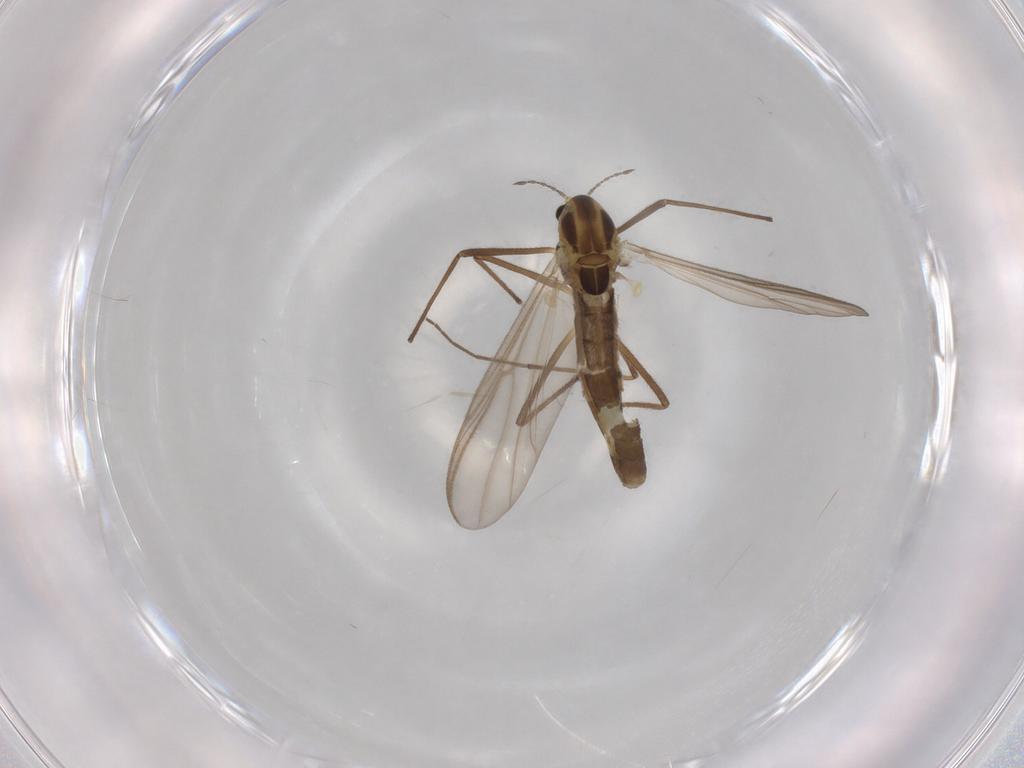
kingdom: Animalia
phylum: Arthropoda
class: Insecta
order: Diptera
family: Chironomidae
